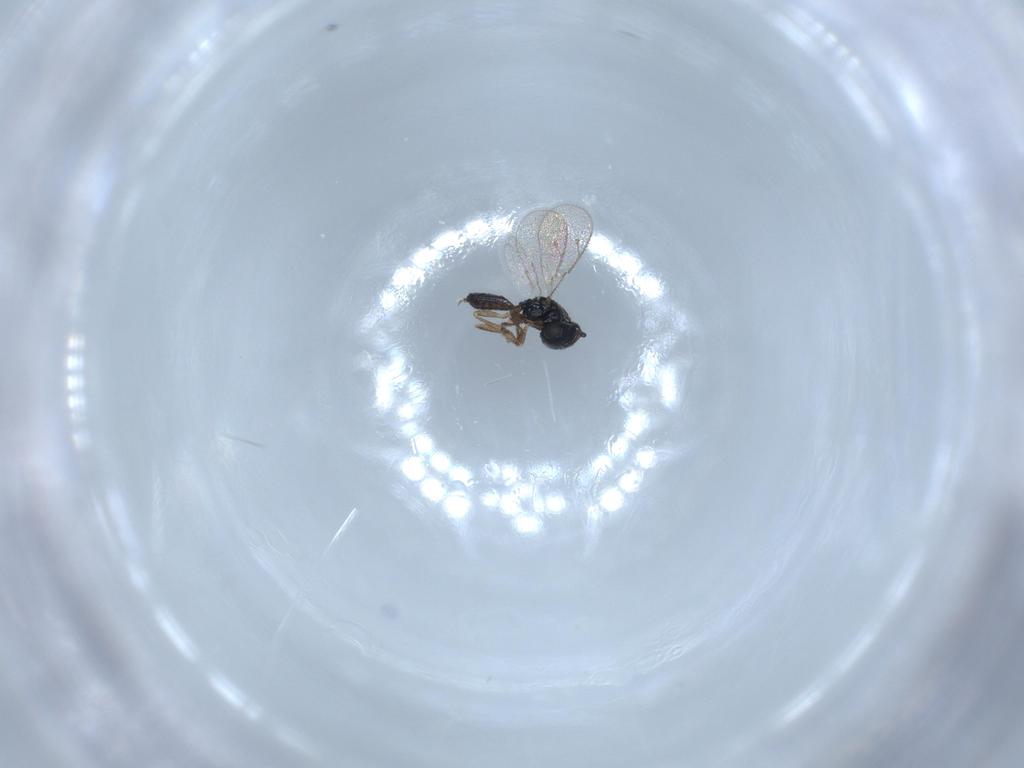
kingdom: Animalia
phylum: Arthropoda
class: Insecta
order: Hymenoptera
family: Pteromalidae
